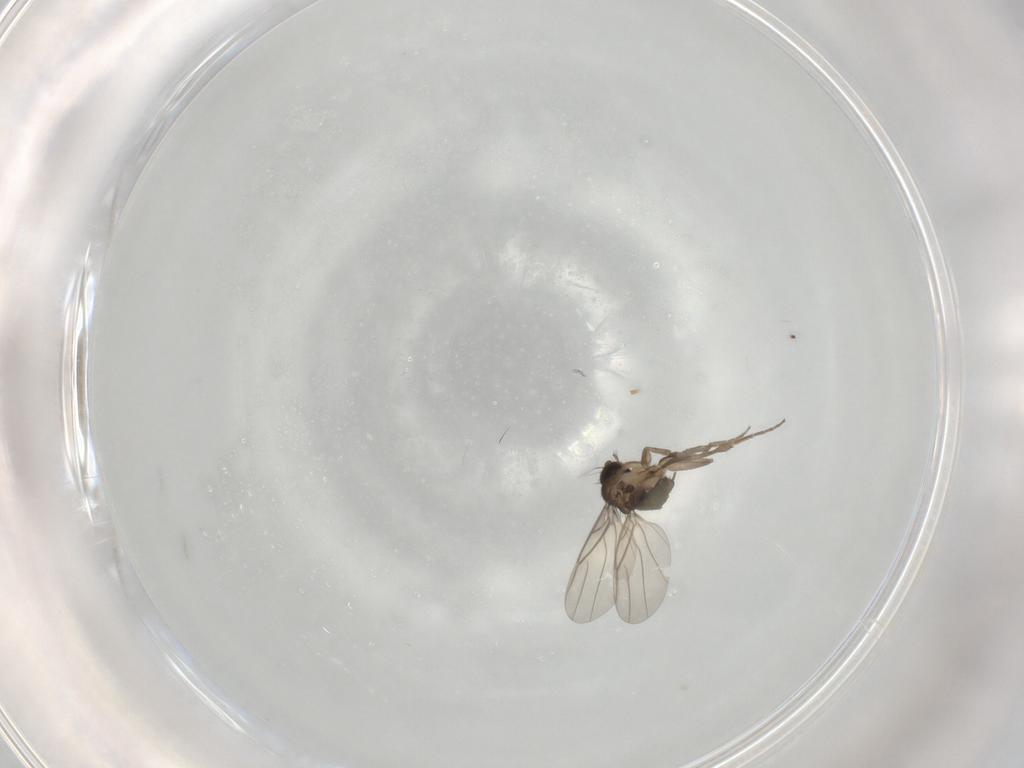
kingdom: Animalia
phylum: Arthropoda
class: Insecta
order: Diptera
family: Phoridae
